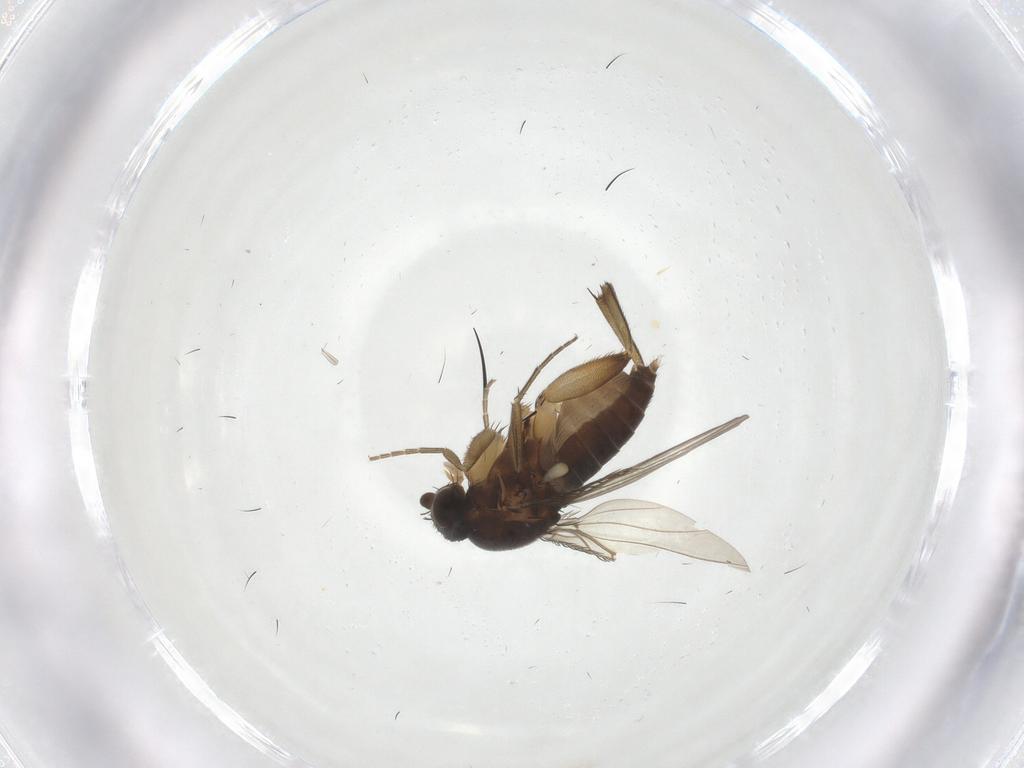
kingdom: Animalia
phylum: Arthropoda
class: Insecta
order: Diptera
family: Phoridae
